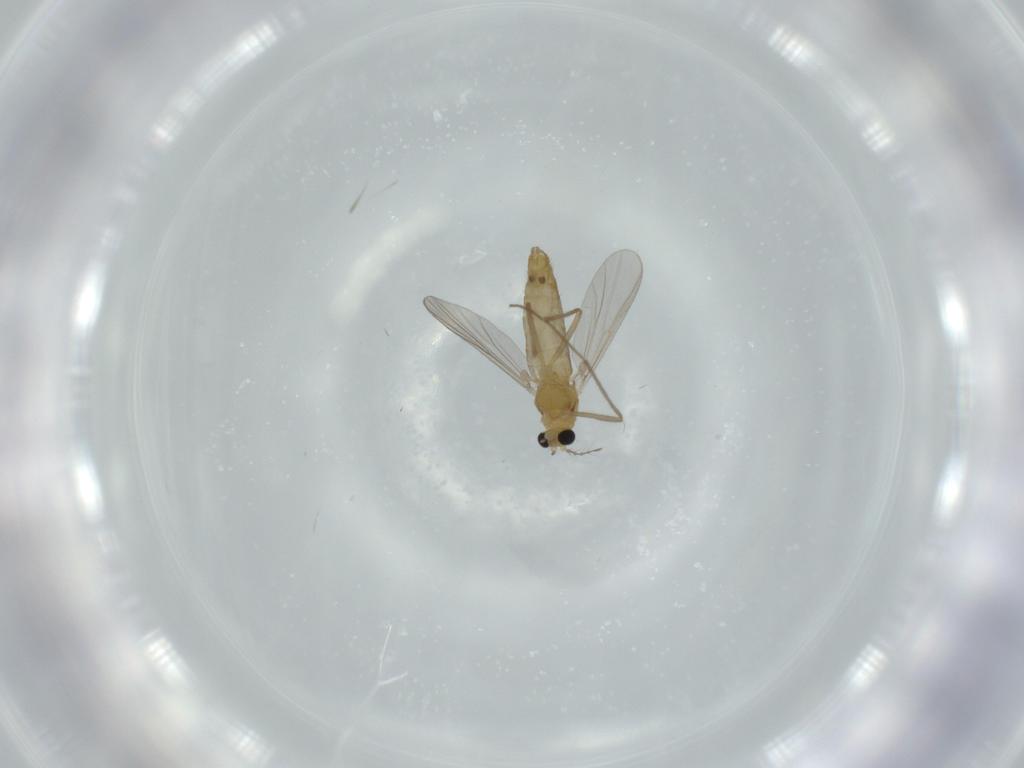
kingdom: Animalia
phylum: Arthropoda
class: Insecta
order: Diptera
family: Chironomidae
